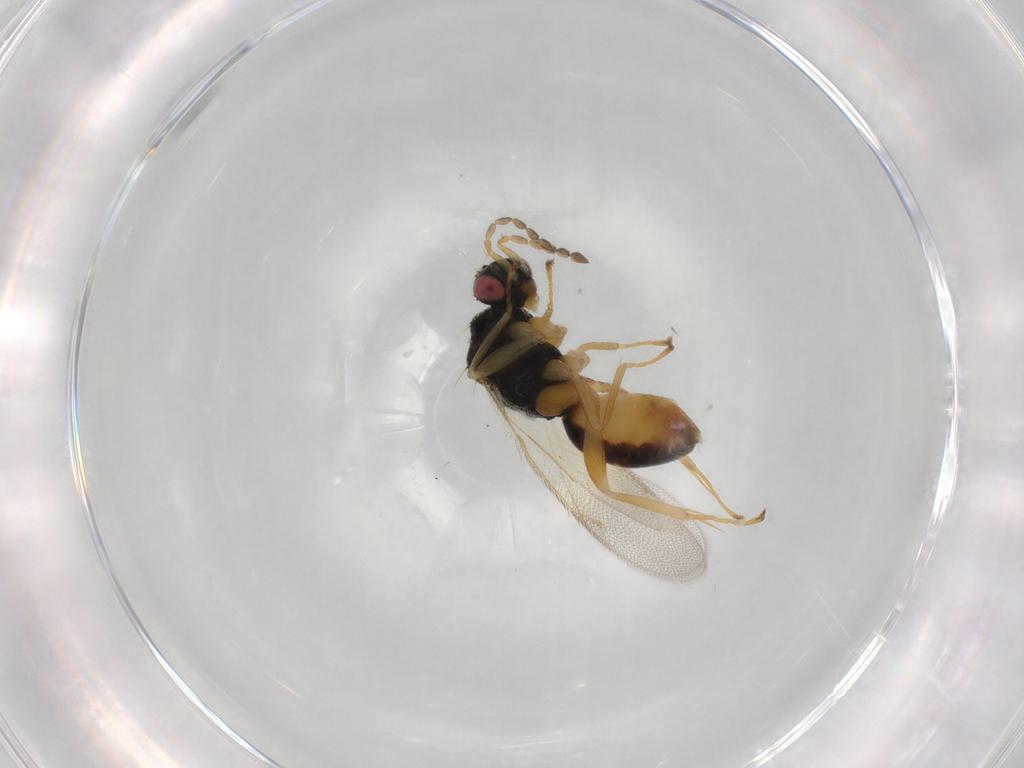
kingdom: Animalia
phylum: Arthropoda
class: Insecta
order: Hymenoptera
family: Eulophidae
